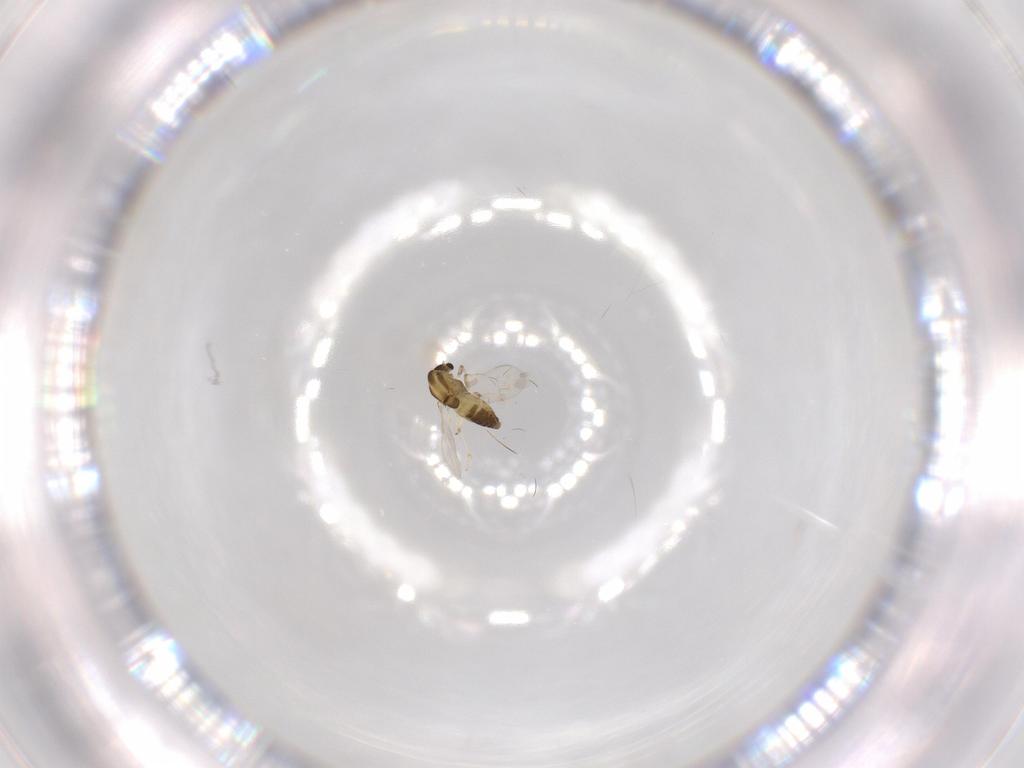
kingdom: Animalia
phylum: Arthropoda
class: Insecta
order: Diptera
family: Chironomidae
